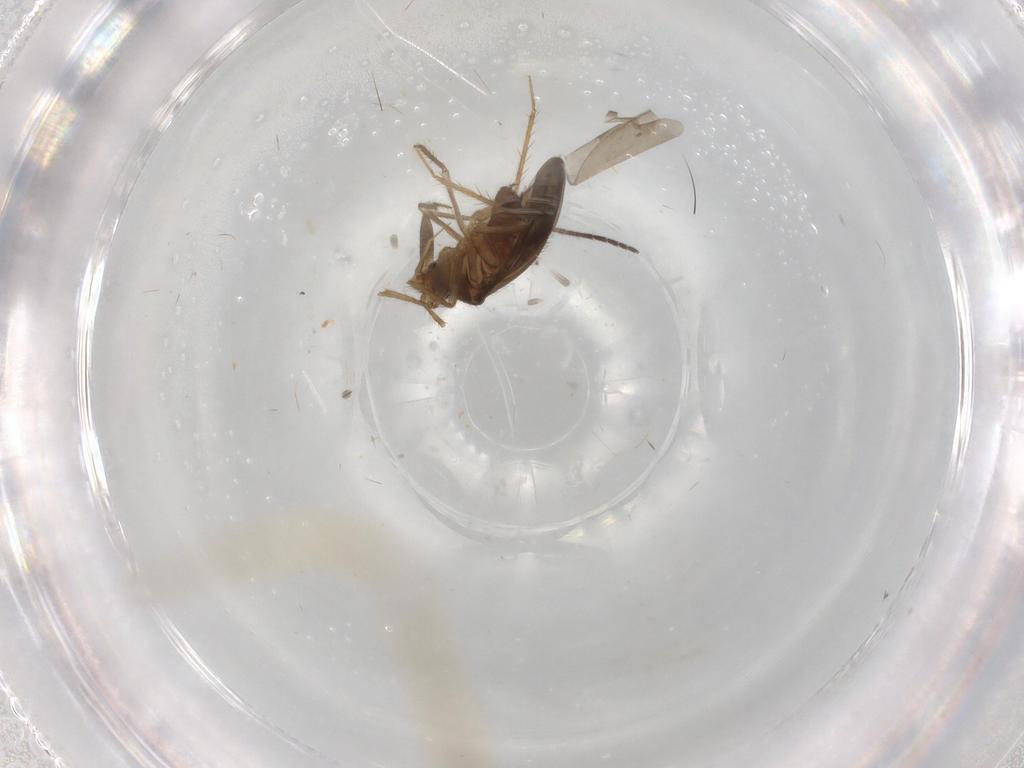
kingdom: Animalia
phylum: Arthropoda
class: Insecta
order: Hemiptera
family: Ceratocombidae
